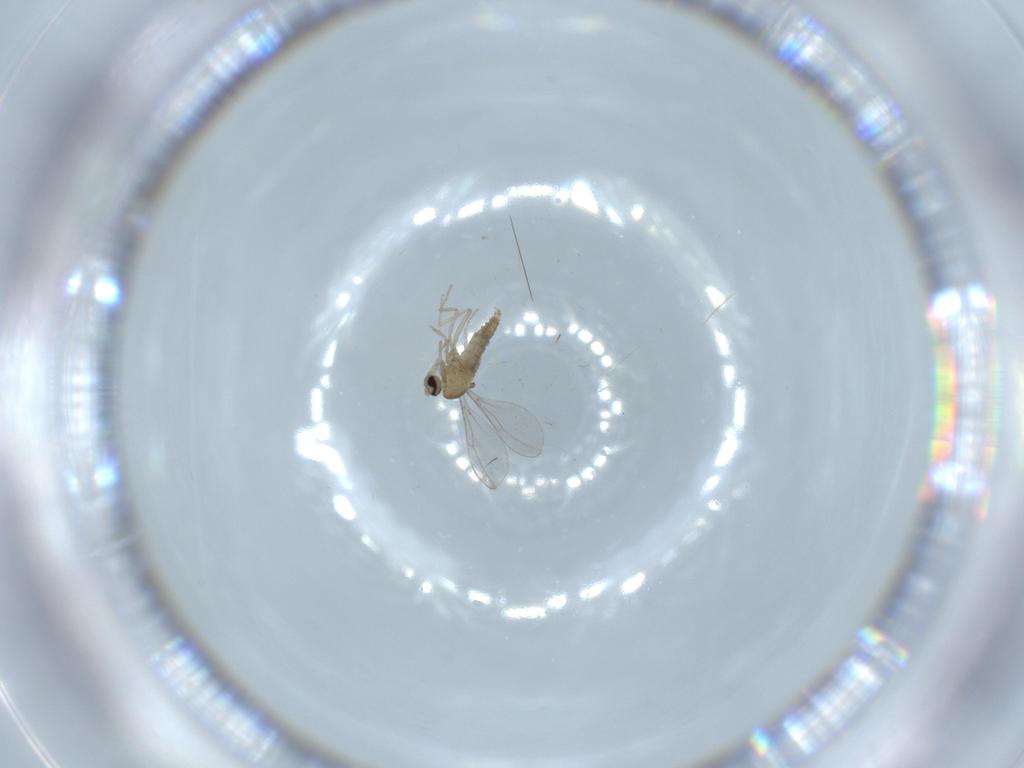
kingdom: Animalia
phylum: Arthropoda
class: Insecta
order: Diptera
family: Cecidomyiidae
